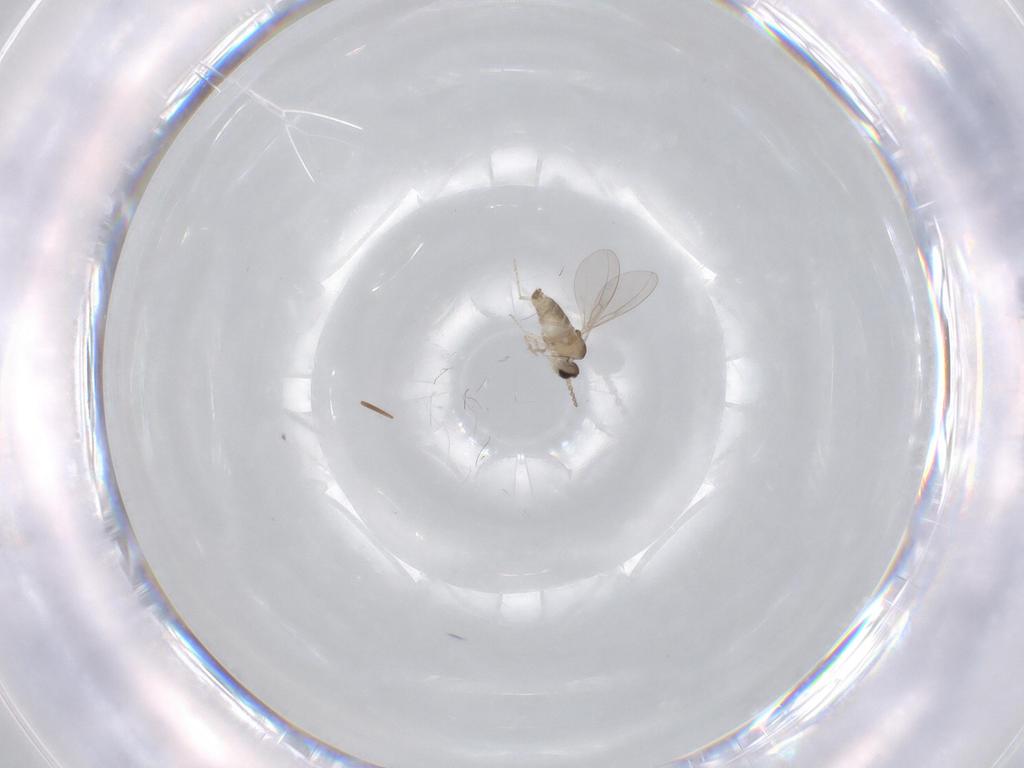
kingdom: Animalia
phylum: Arthropoda
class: Insecta
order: Diptera
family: Cecidomyiidae
